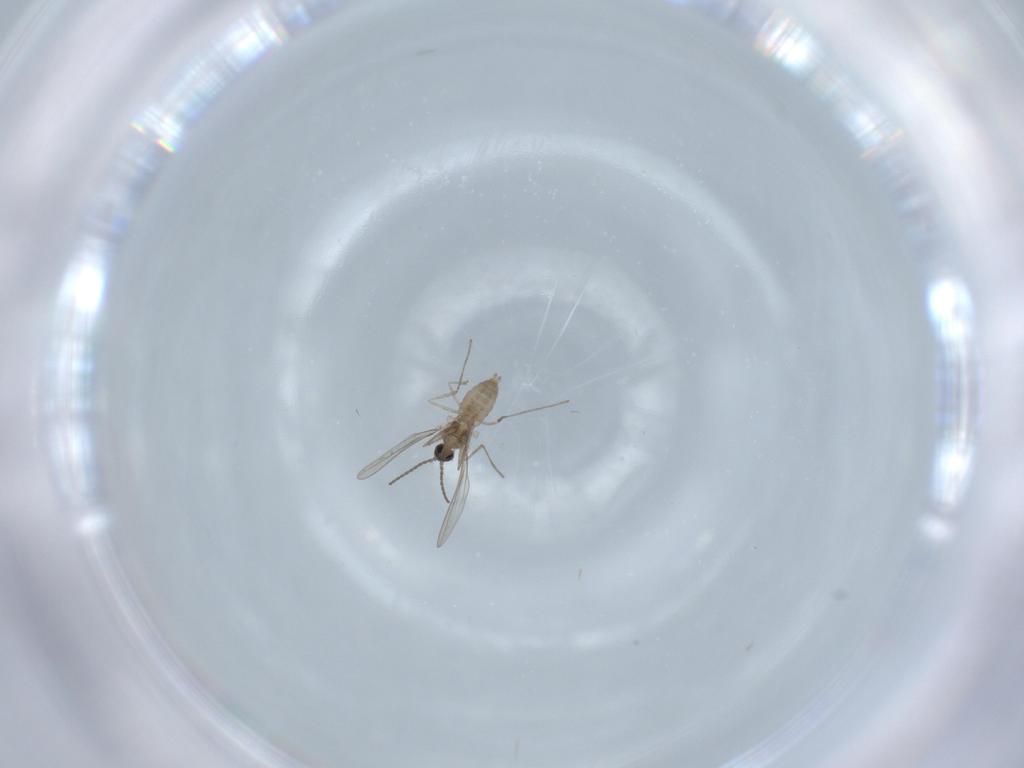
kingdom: Animalia
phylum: Arthropoda
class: Insecta
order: Diptera
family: Cecidomyiidae
